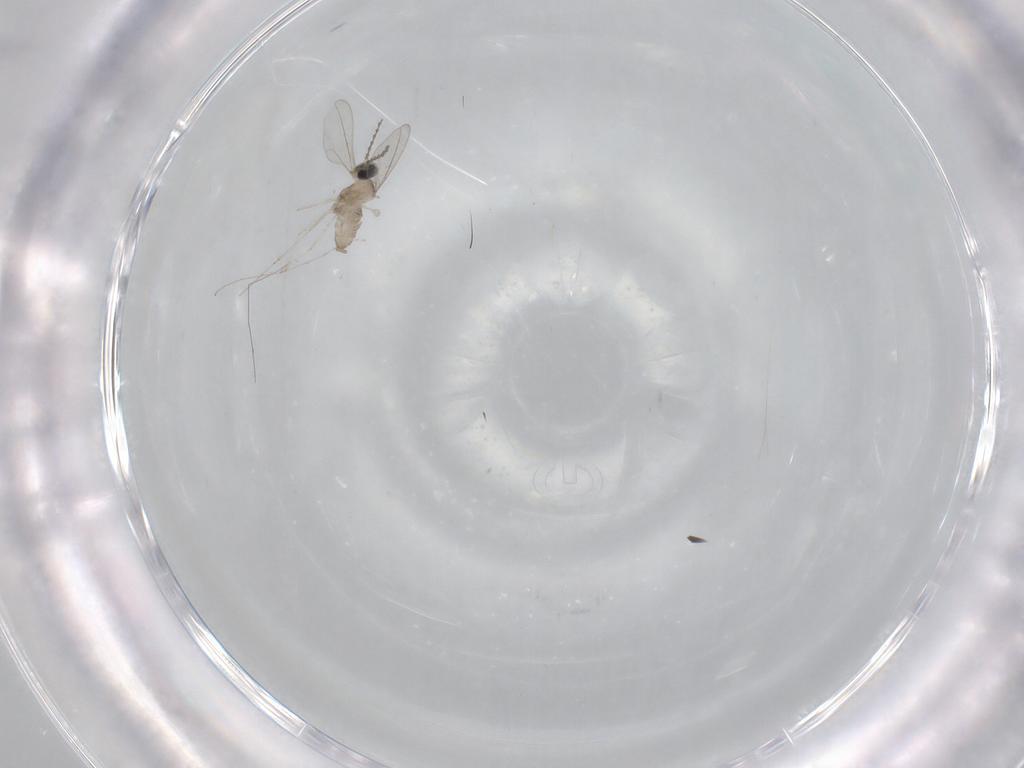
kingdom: Animalia
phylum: Arthropoda
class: Insecta
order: Diptera
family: Cecidomyiidae
